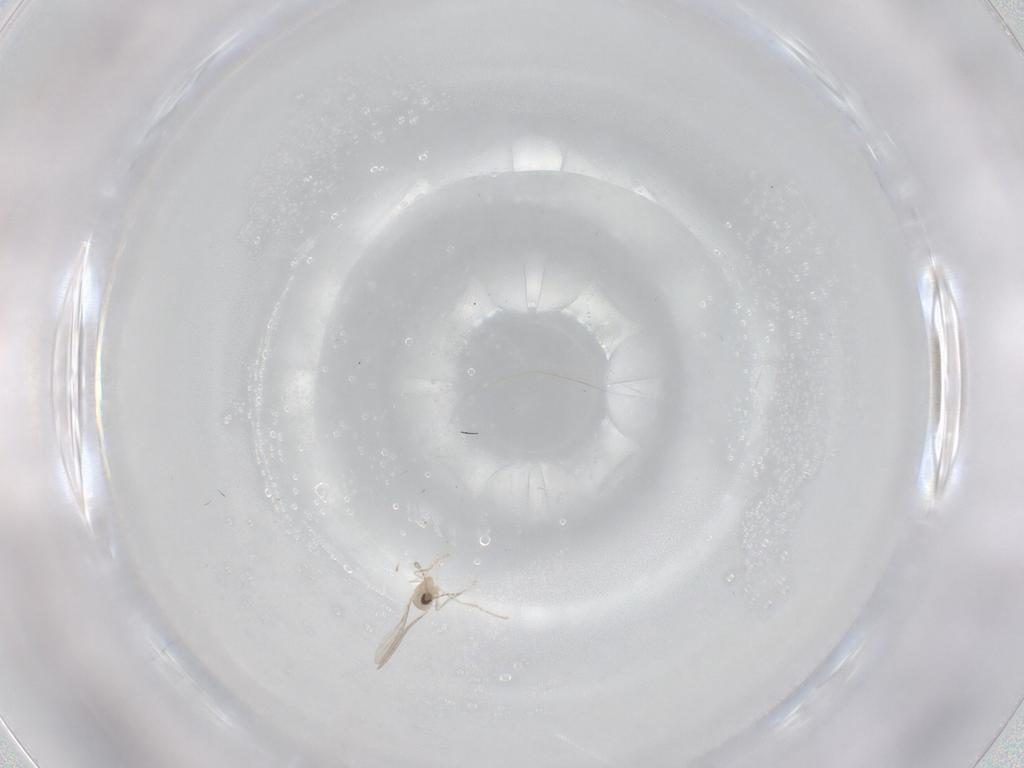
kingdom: Animalia
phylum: Arthropoda
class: Insecta
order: Diptera
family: Cecidomyiidae
